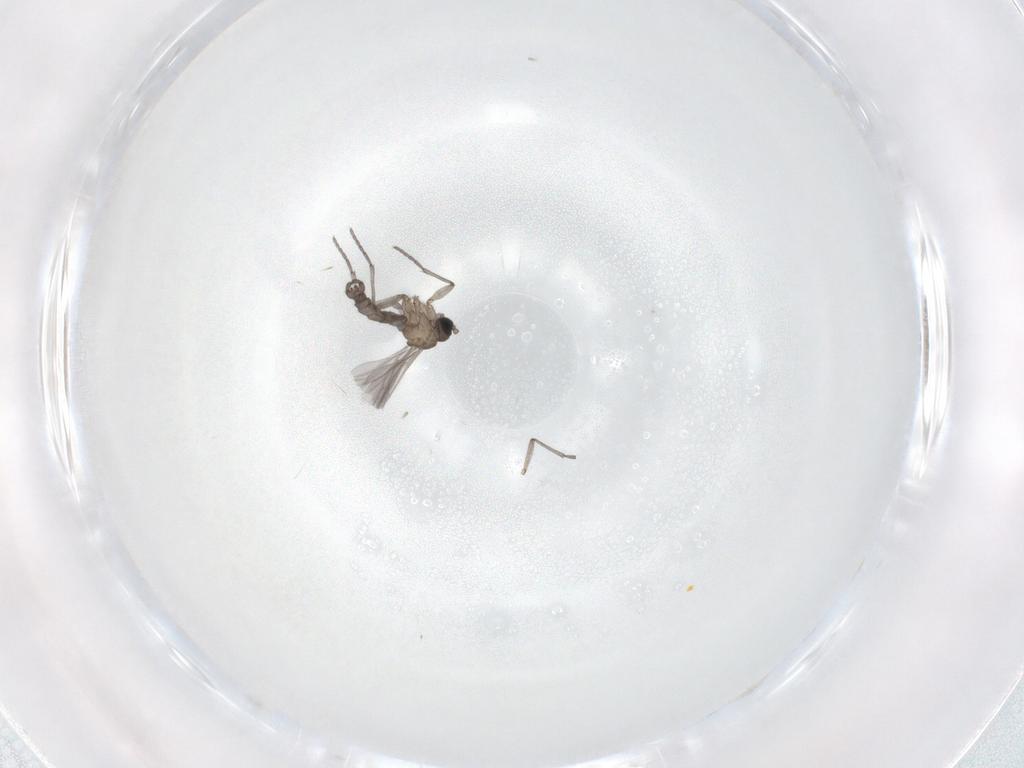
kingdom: Animalia
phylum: Arthropoda
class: Insecta
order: Diptera
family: Sciaridae
